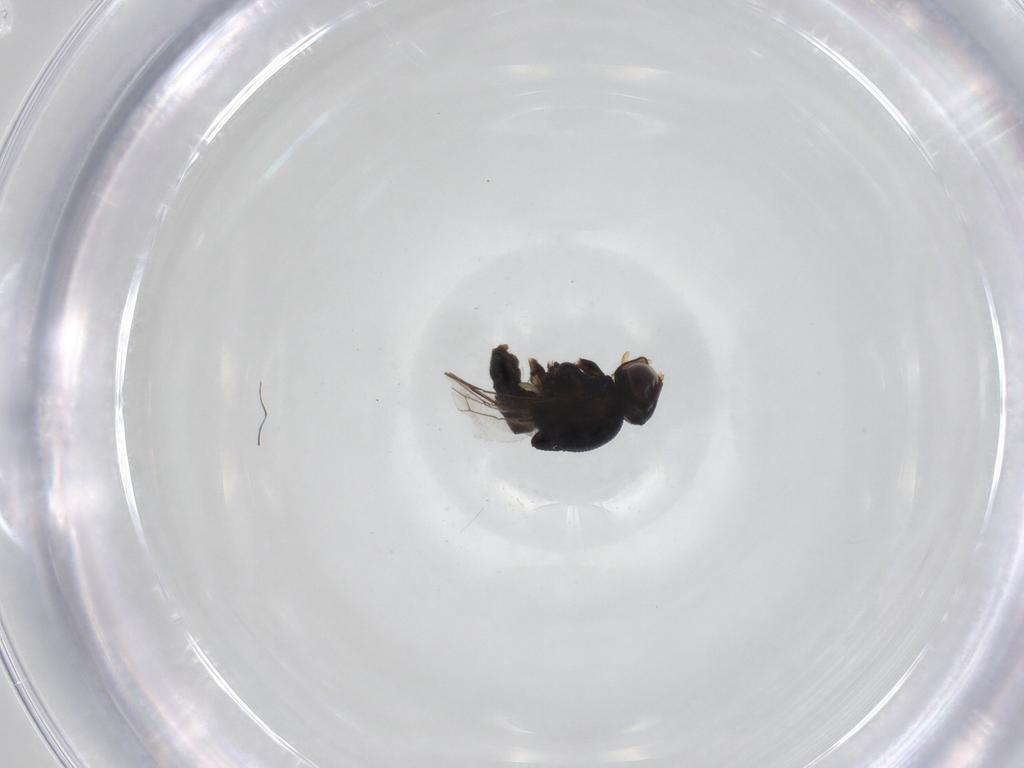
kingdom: Animalia
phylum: Arthropoda
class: Insecta
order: Diptera
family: Chloropidae
